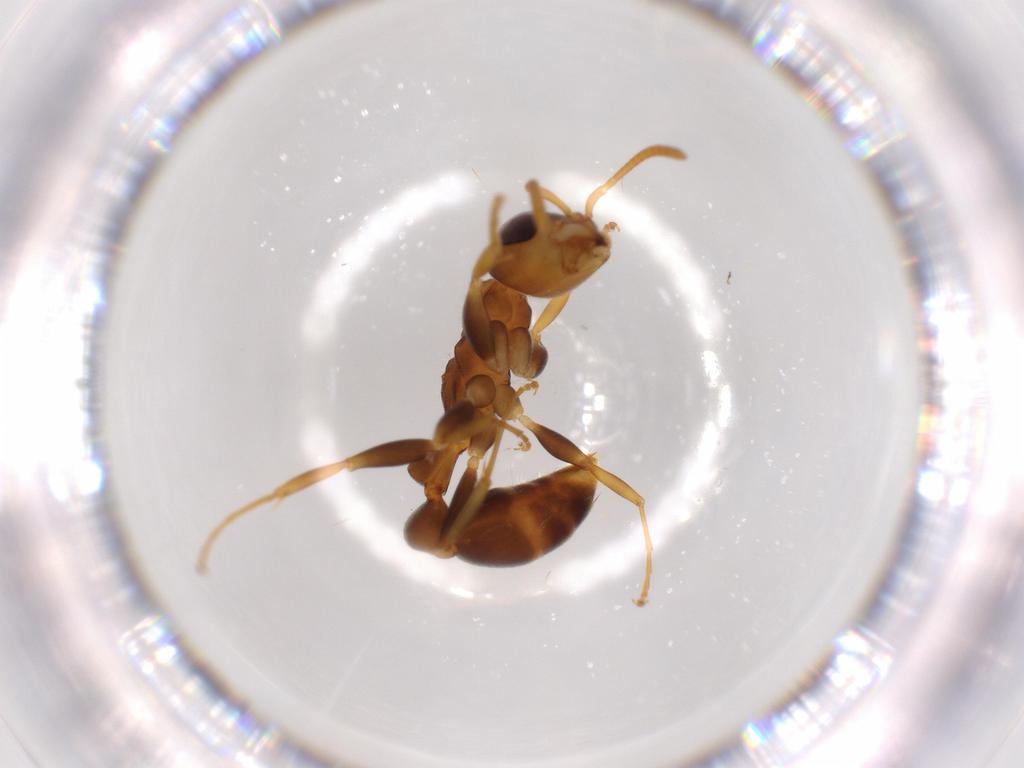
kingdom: Animalia
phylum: Arthropoda
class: Insecta
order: Hymenoptera
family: Formicidae
